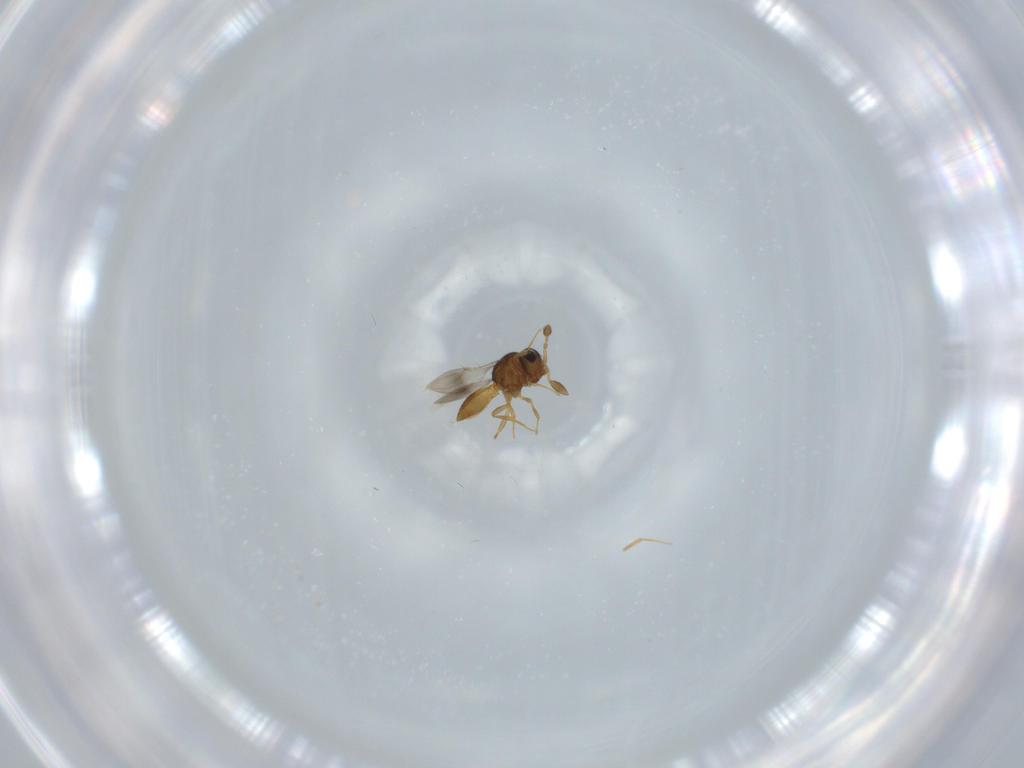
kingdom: Animalia
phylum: Arthropoda
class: Insecta
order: Hymenoptera
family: Scelionidae
